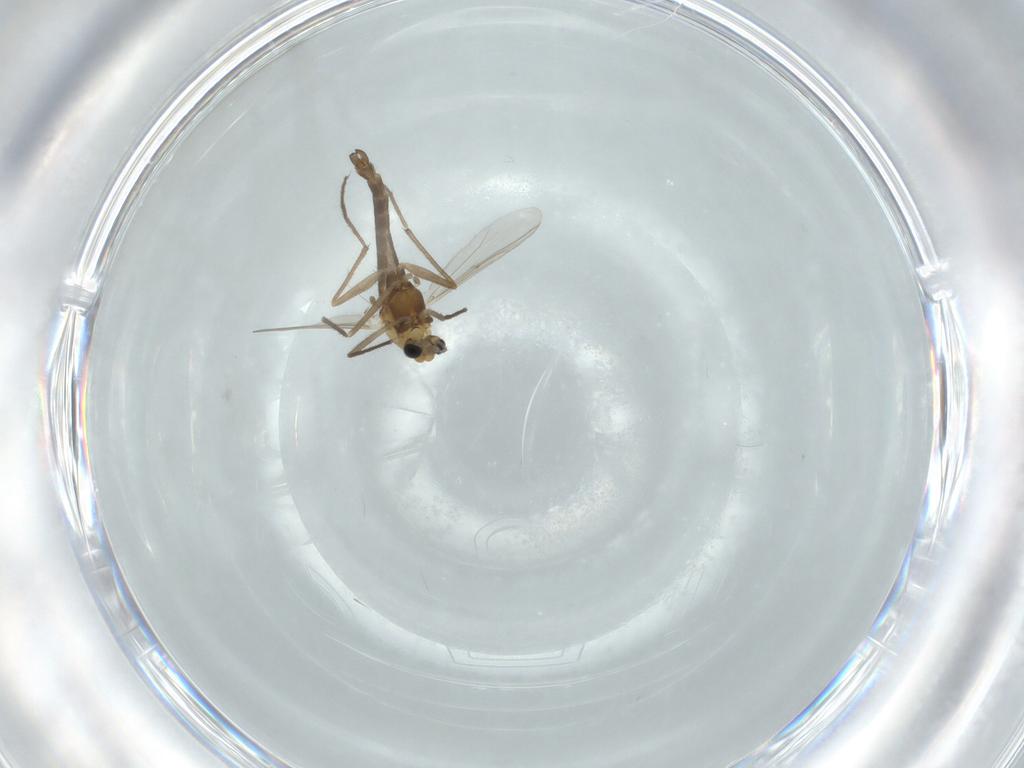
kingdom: Animalia
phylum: Arthropoda
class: Insecta
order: Diptera
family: Chironomidae
